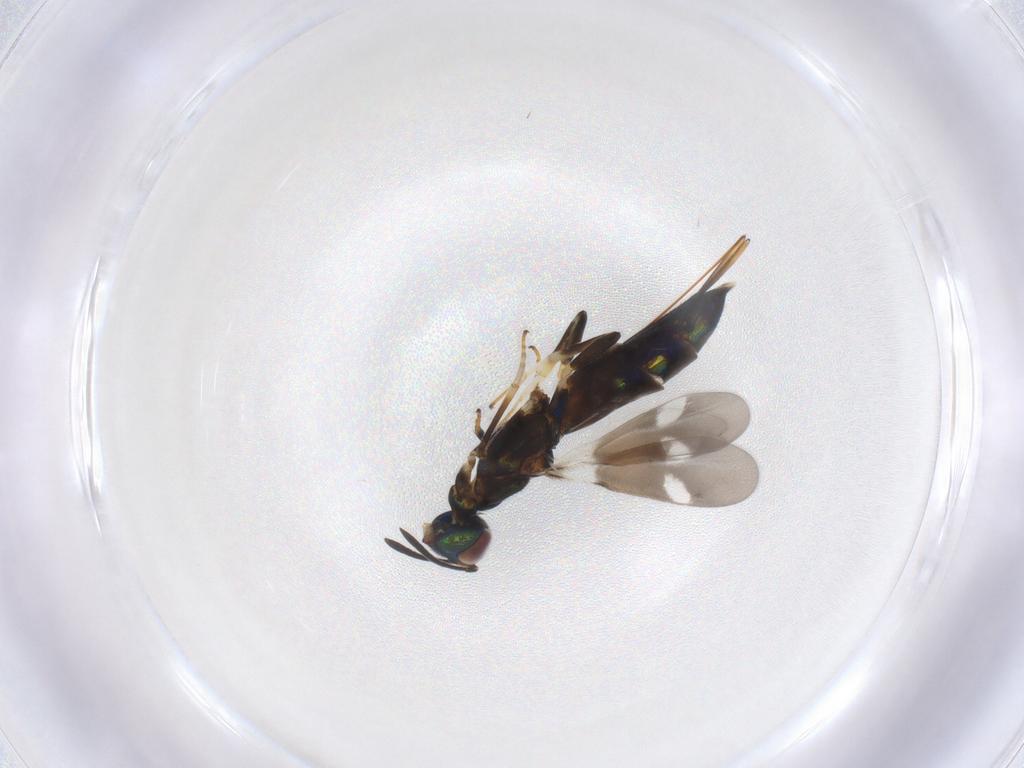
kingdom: Animalia
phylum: Arthropoda
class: Insecta
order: Hymenoptera
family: Eupelmidae
